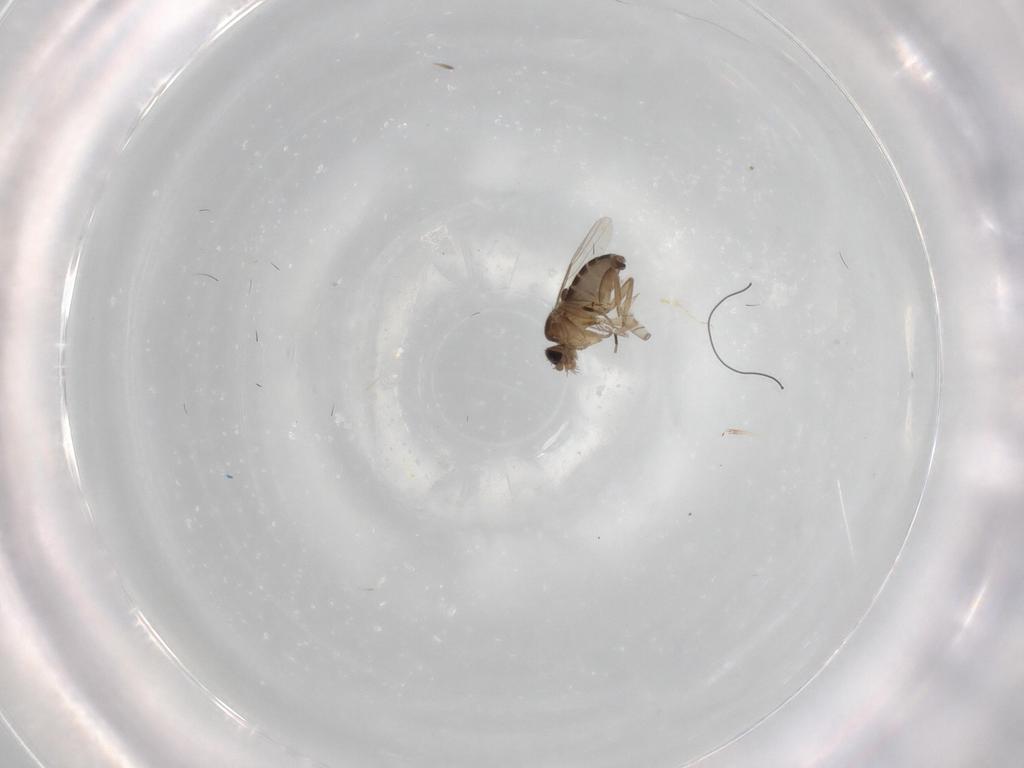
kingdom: Animalia
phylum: Arthropoda
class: Insecta
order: Diptera
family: Phoridae
